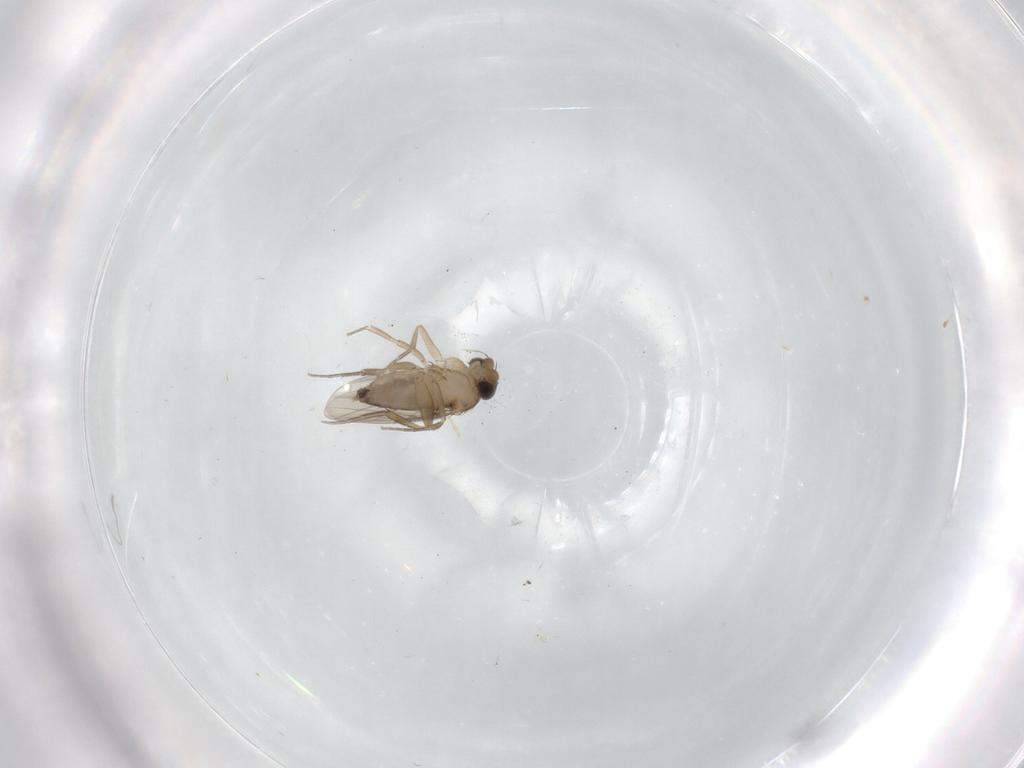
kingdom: Animalia
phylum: Arthropoda
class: Insecta
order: Diptera
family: Phoridae
